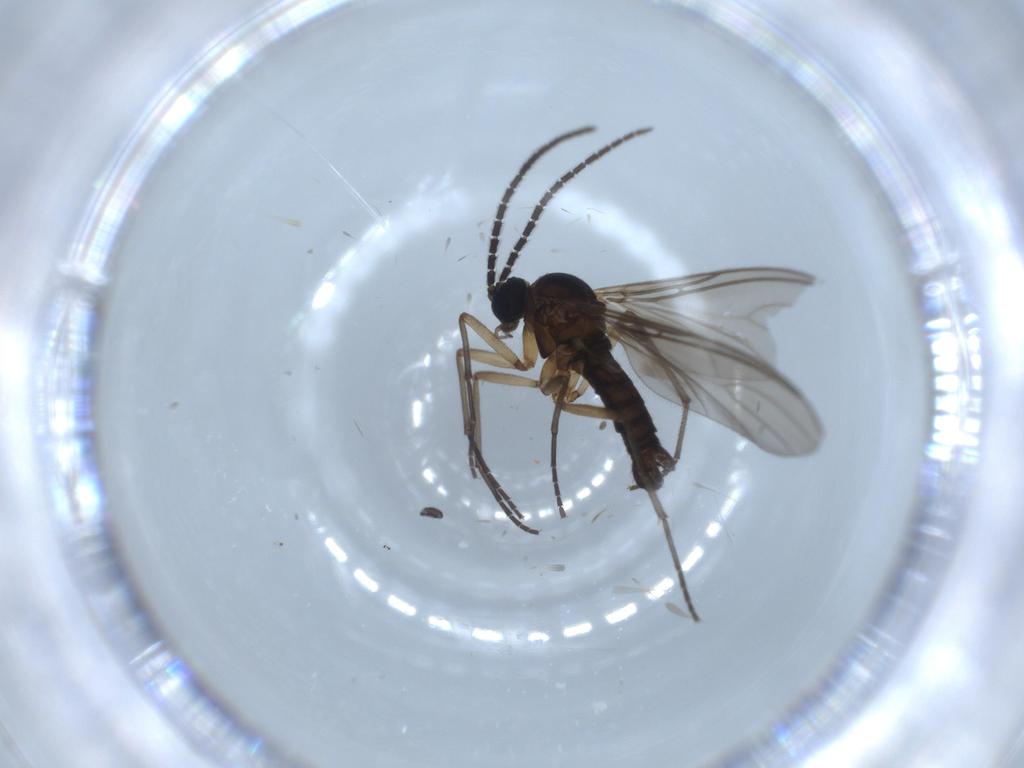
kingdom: Animalia
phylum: Arthropoda
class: Insecta
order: Diptera
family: Sciaridae
